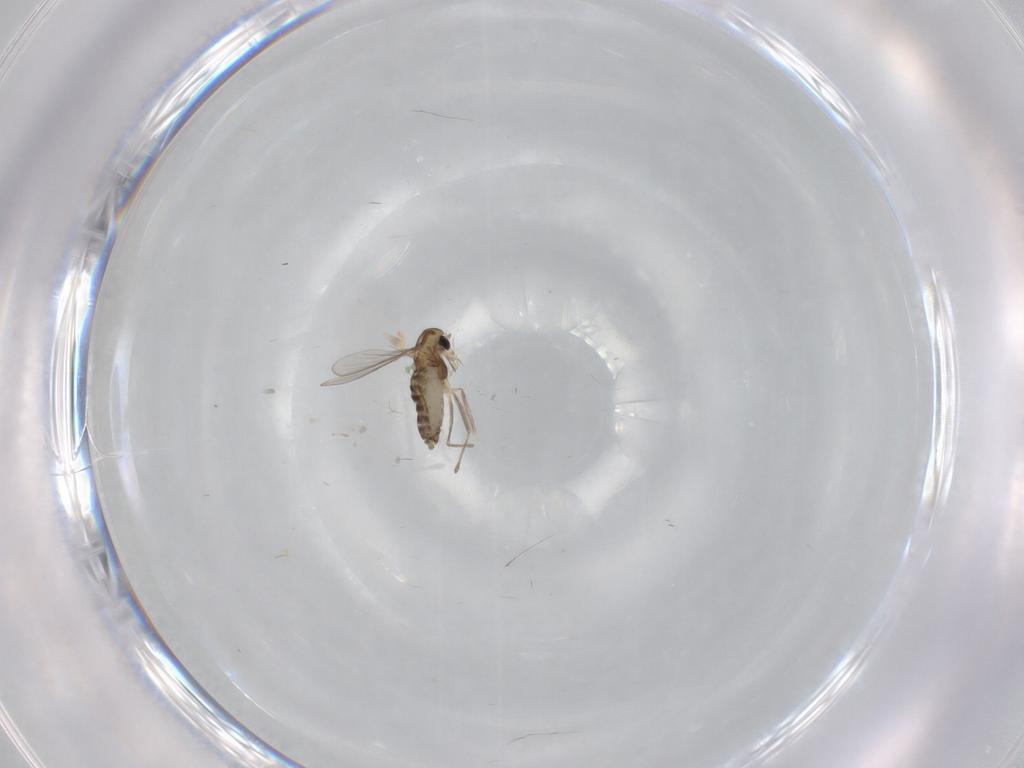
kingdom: Animalia
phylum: Arthropoda
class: Insecta
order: Diptera
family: Chironomidae
